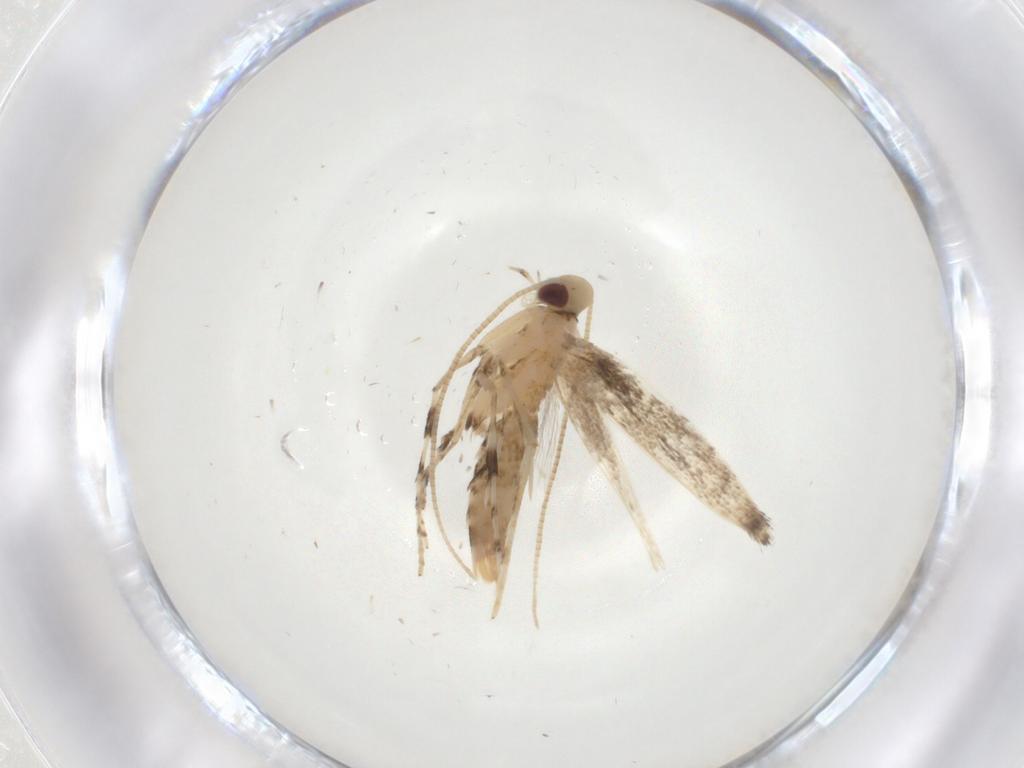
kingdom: Animalia
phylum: Arthropoda
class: Insecta
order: Lepidoptera
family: Gracillariidae
